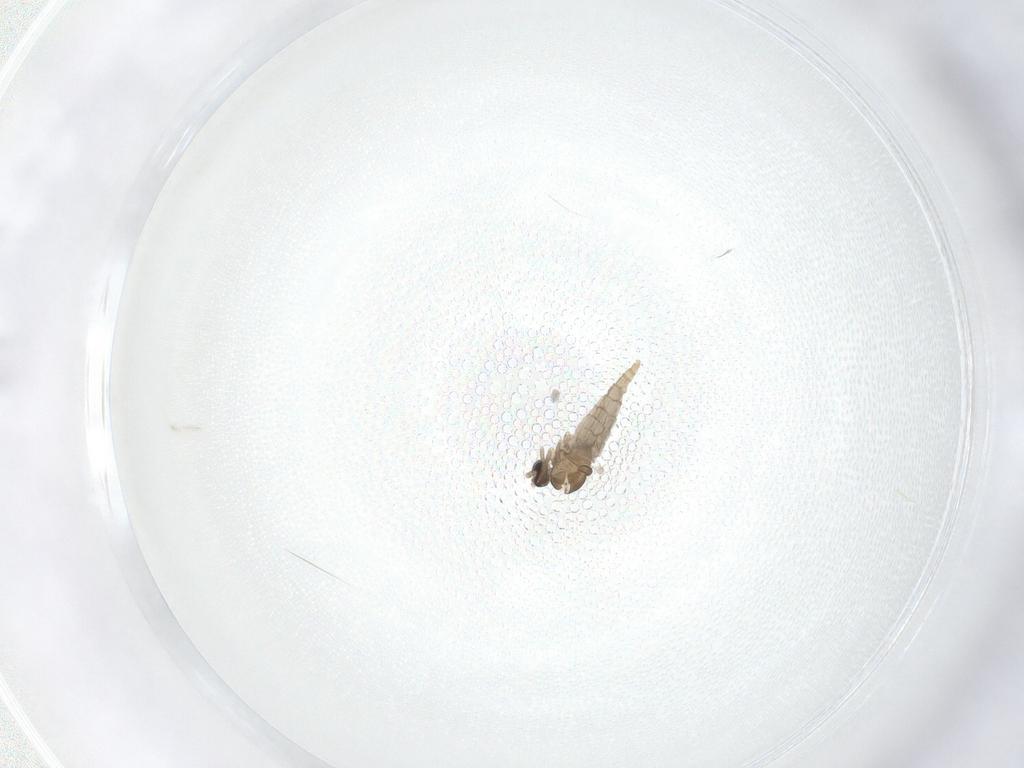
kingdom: Animalia
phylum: Arthropoda
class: Insecta
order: Diptera
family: Cecidomyiidae
